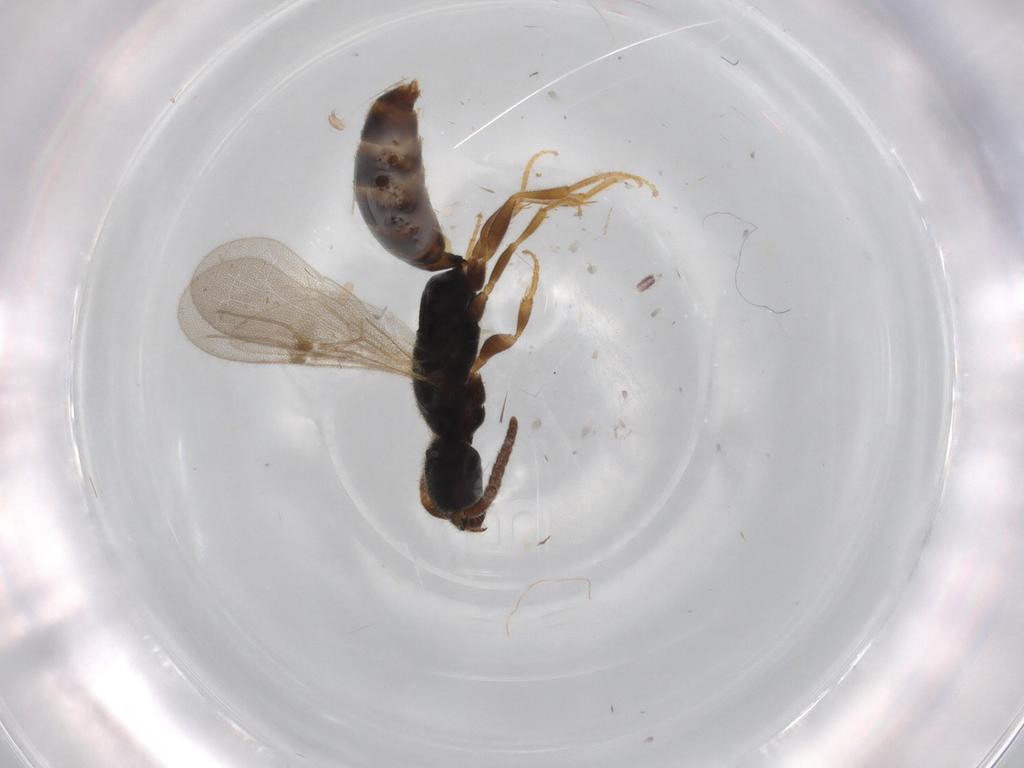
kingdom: Animalia
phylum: Arthropoda
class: Insecta
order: Hymenoptera
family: Bethylidae
